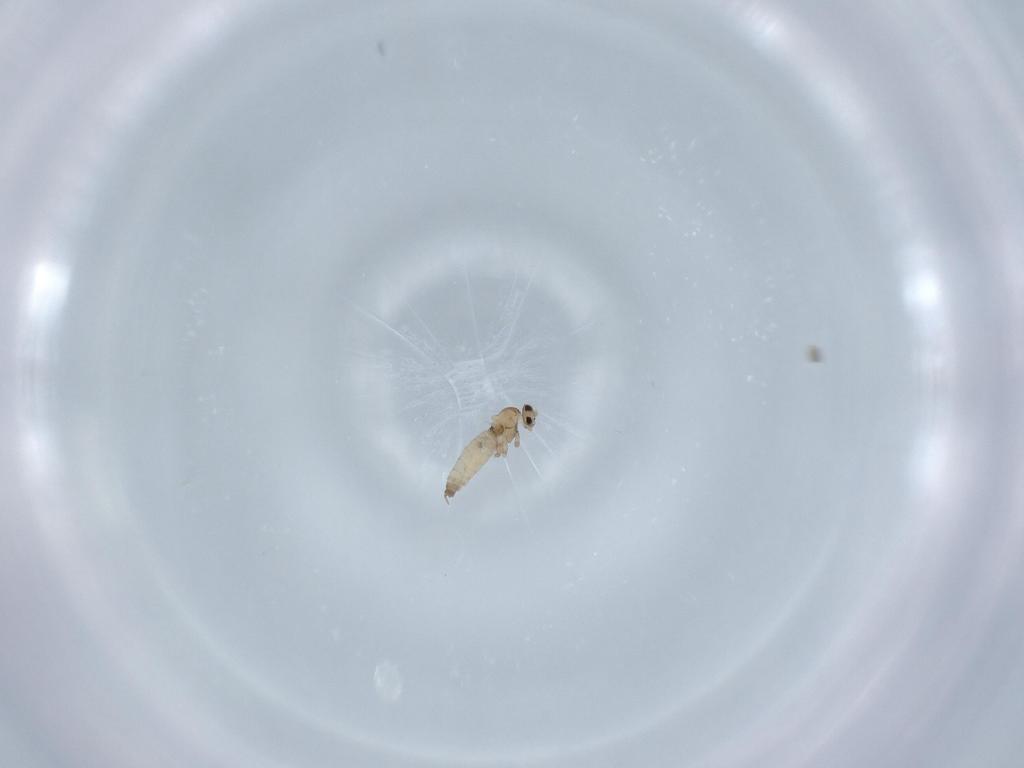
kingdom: Animalia
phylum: Arthropoda
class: Insecta
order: Diptera
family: Cecidomyiidae
